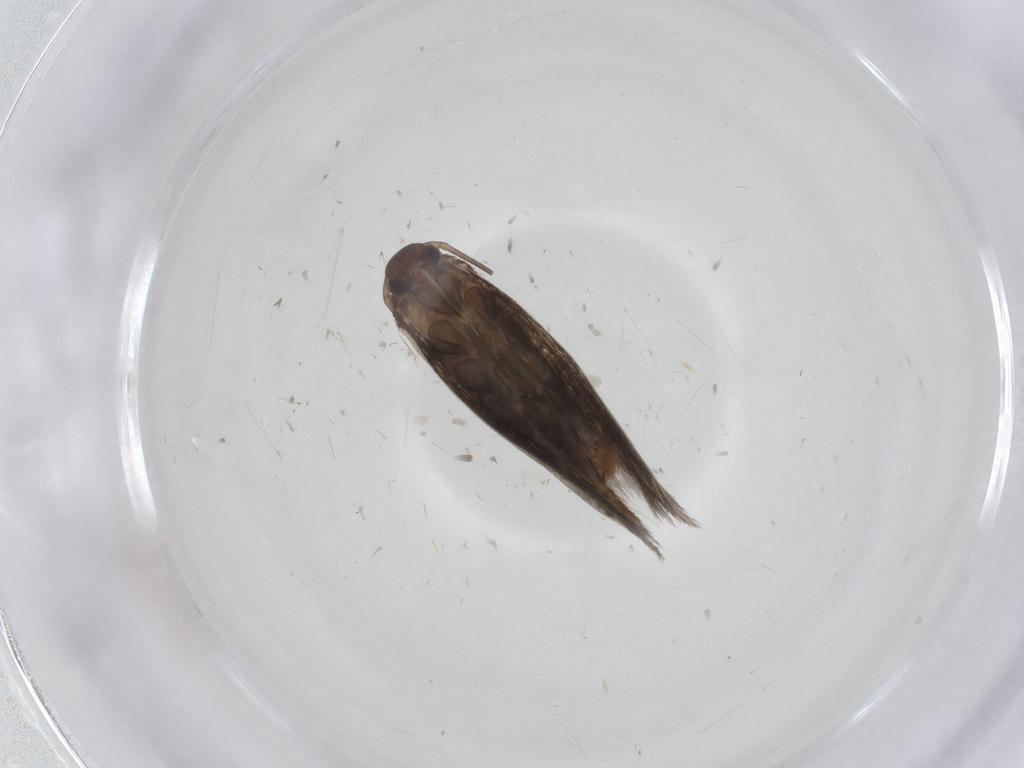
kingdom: Animalia
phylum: Arthropoda
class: Insecta
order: Lepidoptera
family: Elachistidae
